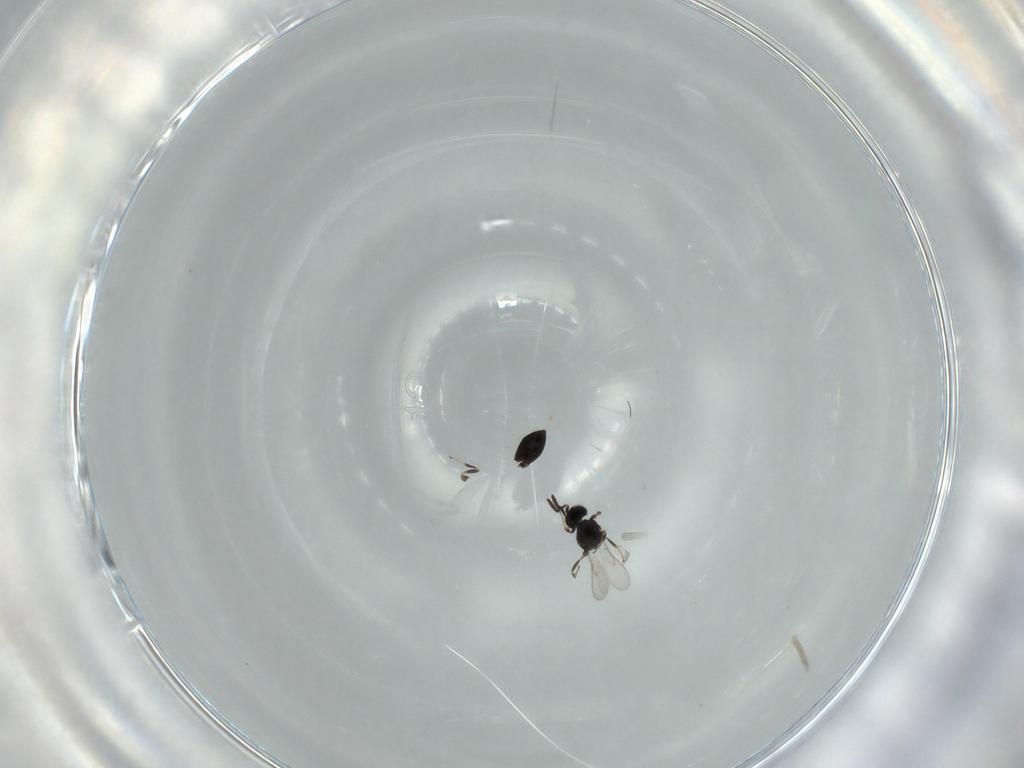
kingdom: Animalia
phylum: Arthropoda
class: Insecta
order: Hymenoptera
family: Scelionidae
